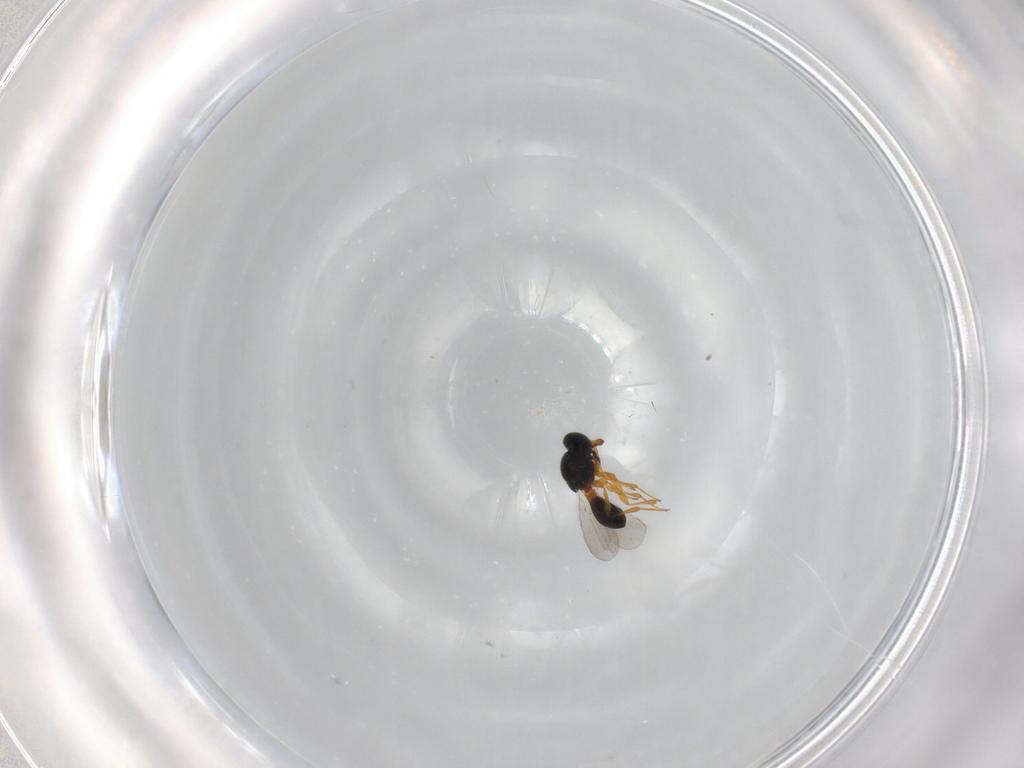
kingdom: Animalia
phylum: Arthropoda
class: Insecta
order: Hymenoptera
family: Platygastridae
